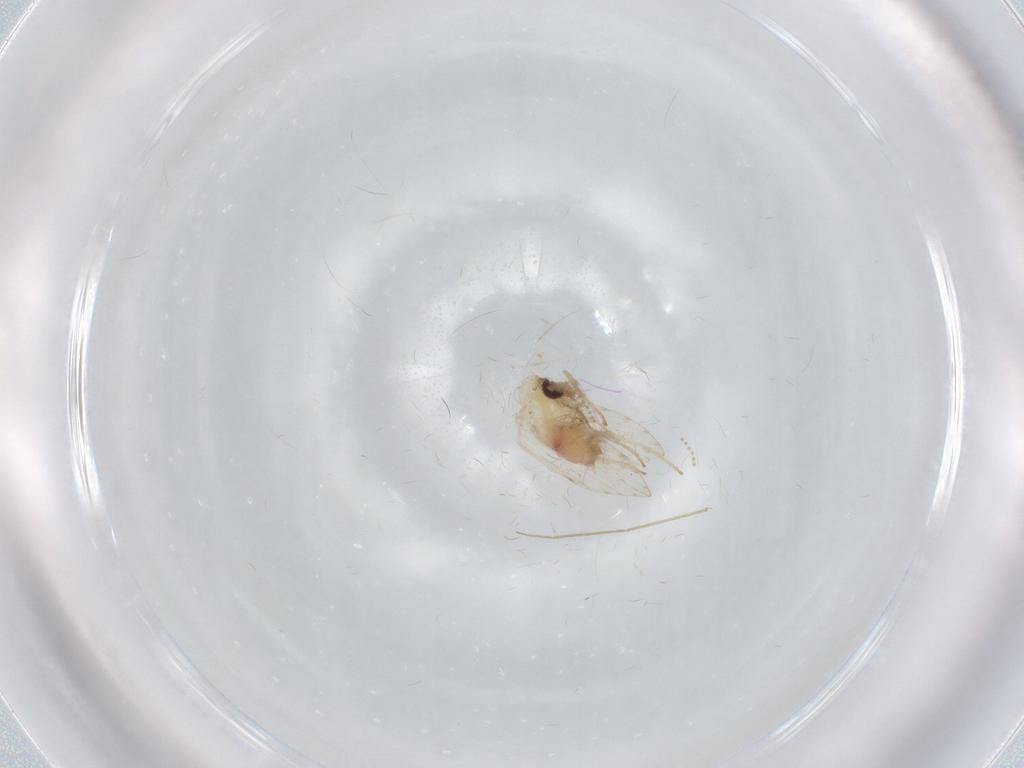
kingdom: Animalia
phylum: Arthropoda
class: Insecta
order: Diptera
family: Psychodidae
